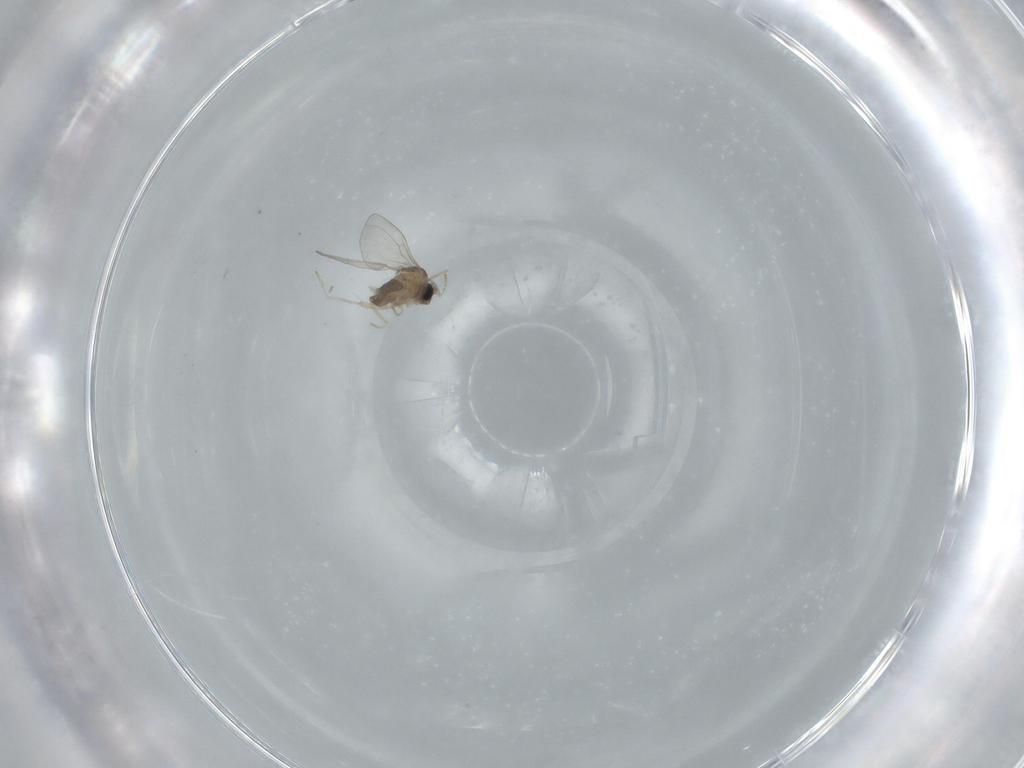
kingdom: Animalia
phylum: Arthropoda
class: Insecta
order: Diptera
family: Cecidomyiidae
